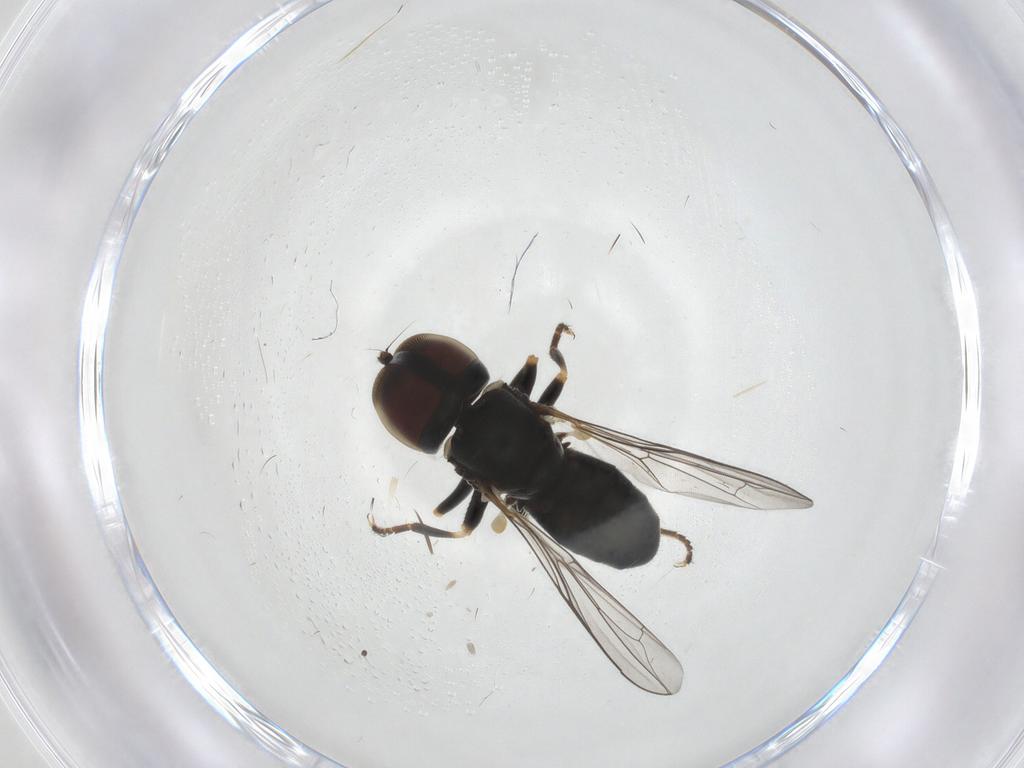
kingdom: Animalia
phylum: Arthropoda
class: Insecta
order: Diptera
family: Pipunculidae
